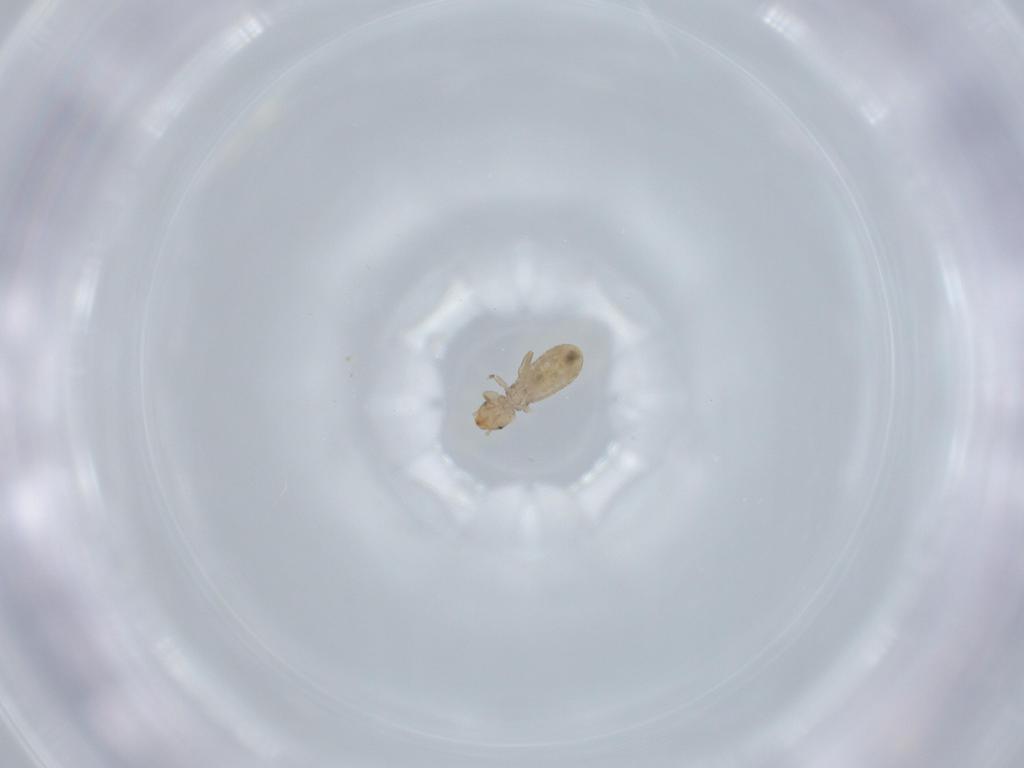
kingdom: Animalia
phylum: Arthropoda
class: Insecta
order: Psocodea
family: Liposcelididae
